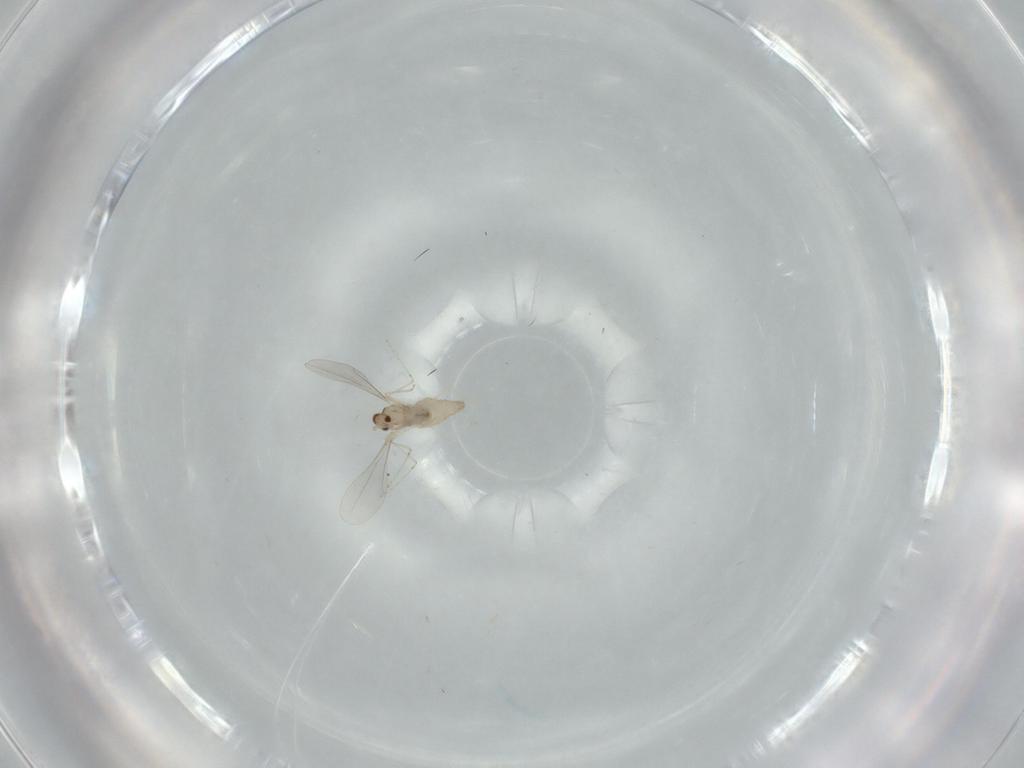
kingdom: Animalia
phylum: Arthropoda
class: Insecta
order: Diptera
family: Cecidomyiidae
